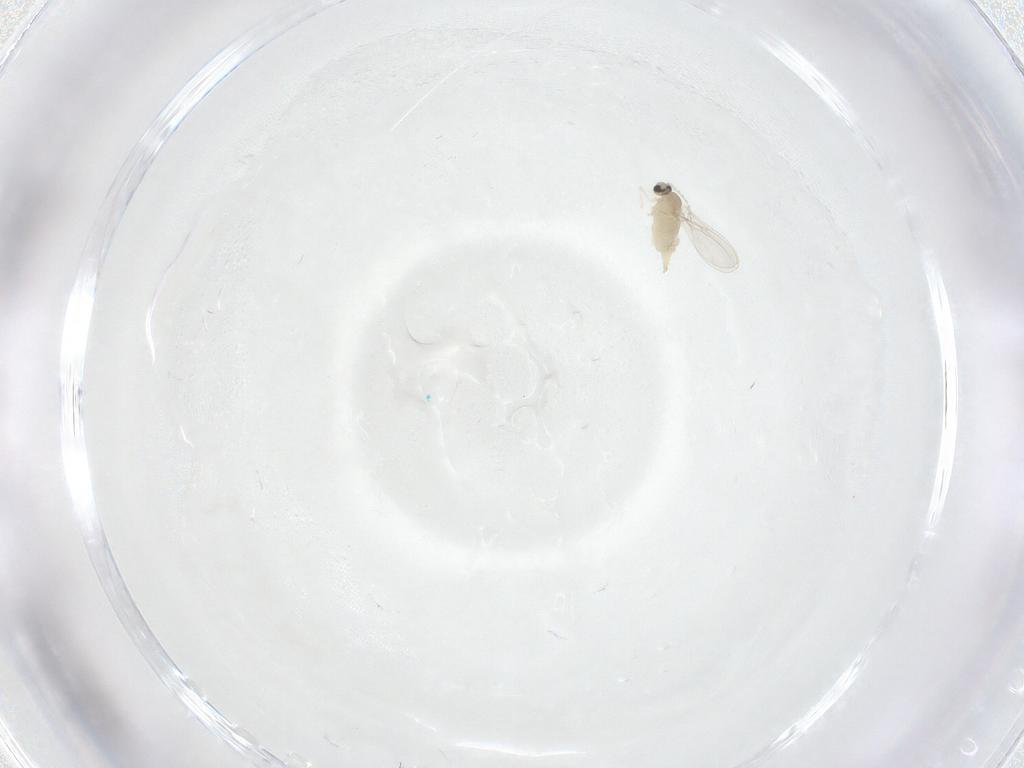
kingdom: Animalia
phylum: Arthropoda
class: Insecta
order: Diptera
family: Cecidomyiidae
